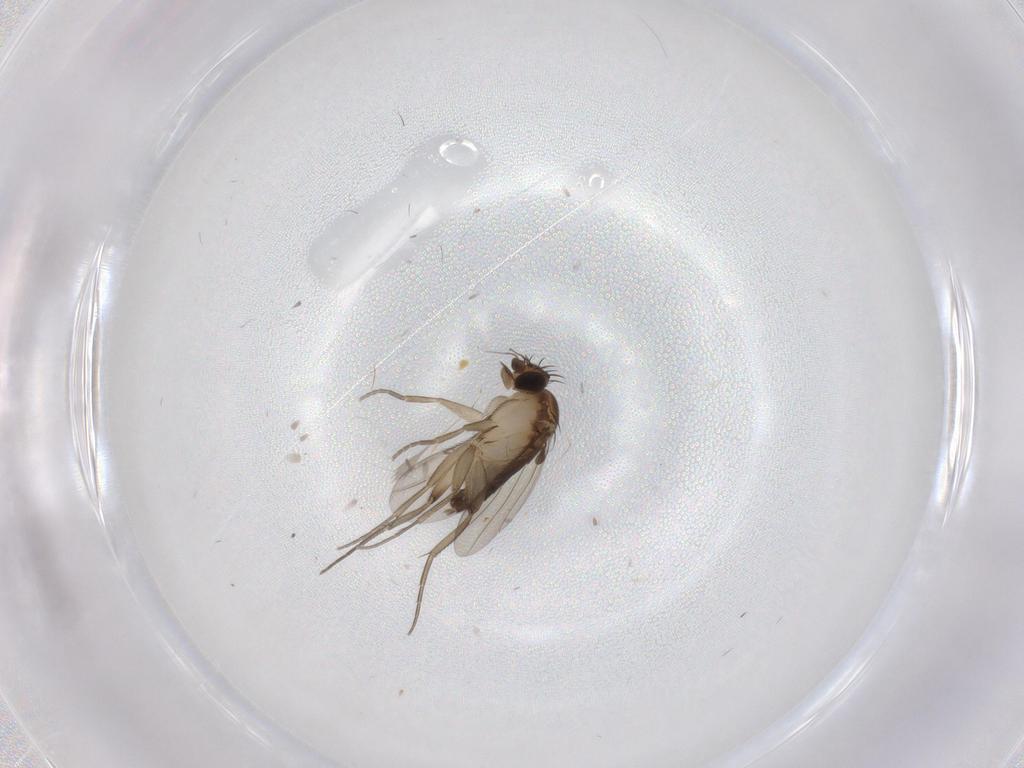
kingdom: Animalia
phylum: Arthropoda
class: Insecta
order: Diptera
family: Phoridae
